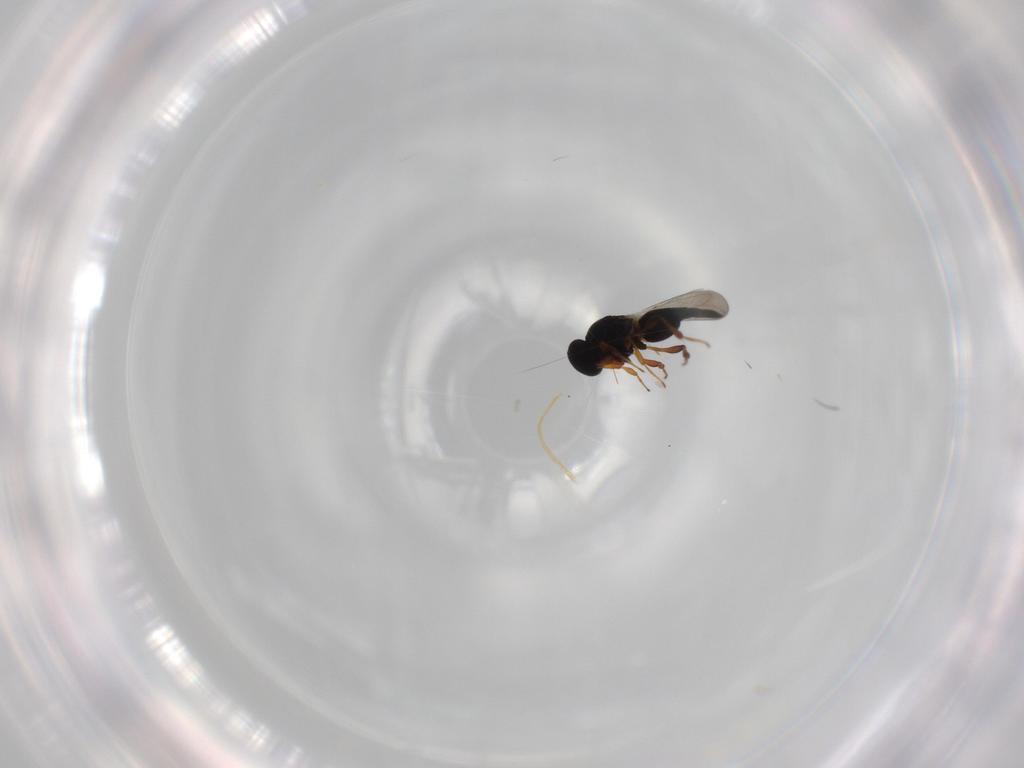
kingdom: Animalia
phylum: Arthropoda
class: Insecta
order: Hymenoptera
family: Platygastridae
